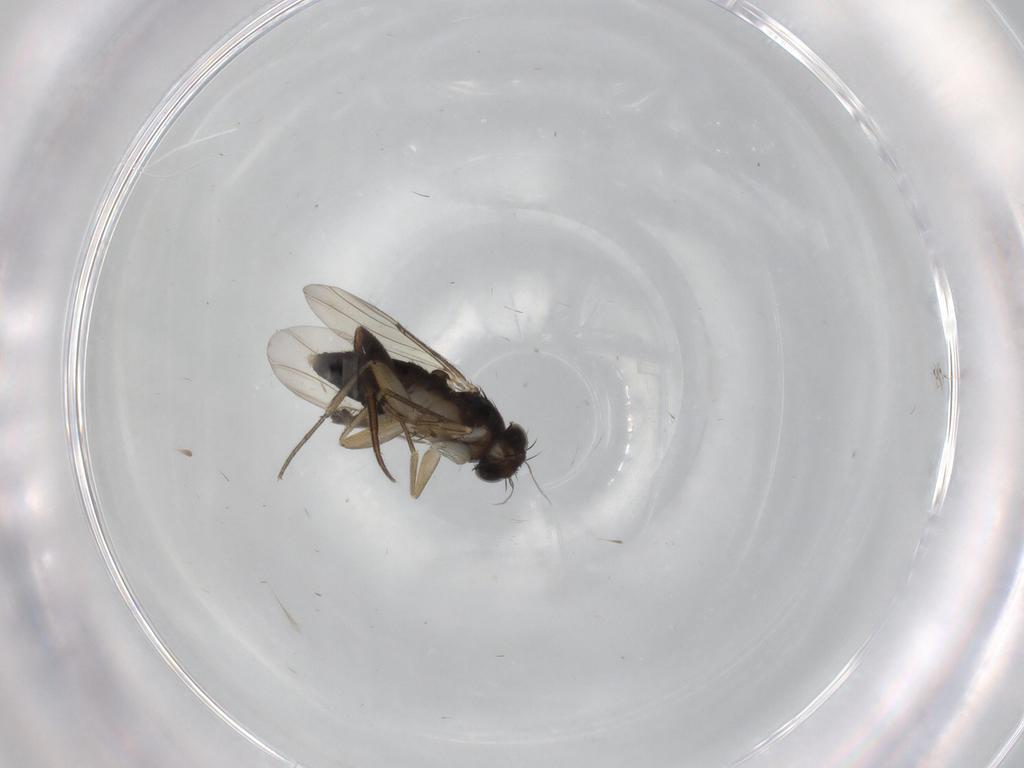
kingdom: Animalia
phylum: Arthropoda
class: Insecta
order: Diptera
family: Phoridae
